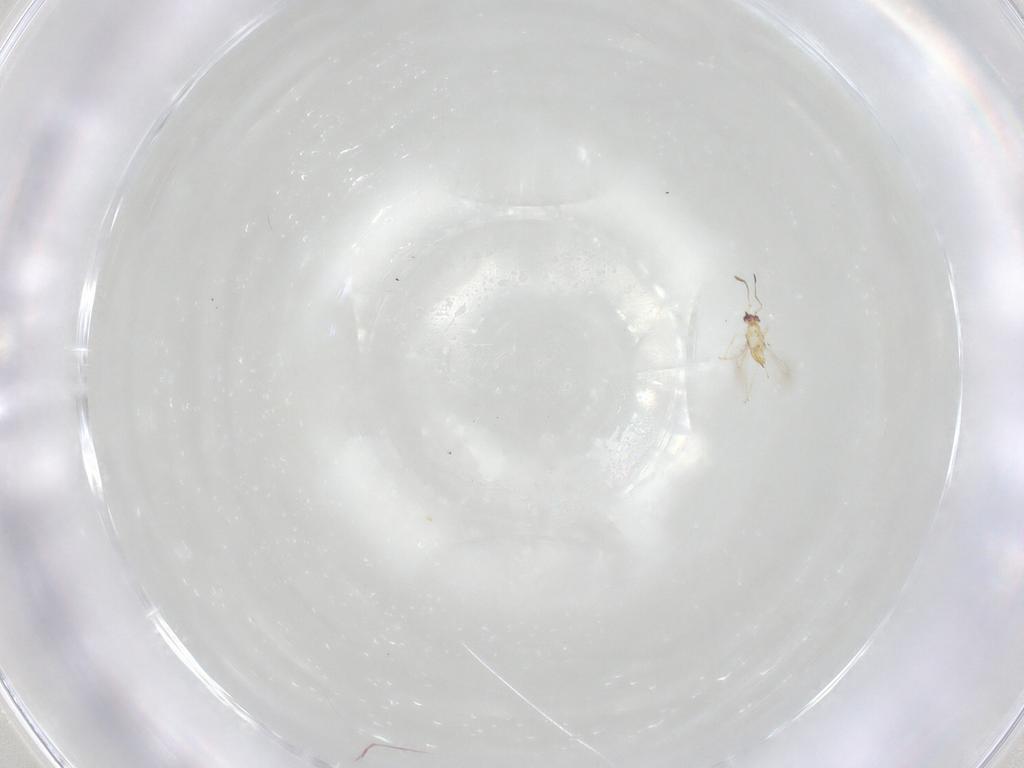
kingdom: Animalia
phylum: Arthropoda
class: Insecta
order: Hymenoptera
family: Mymaridae
